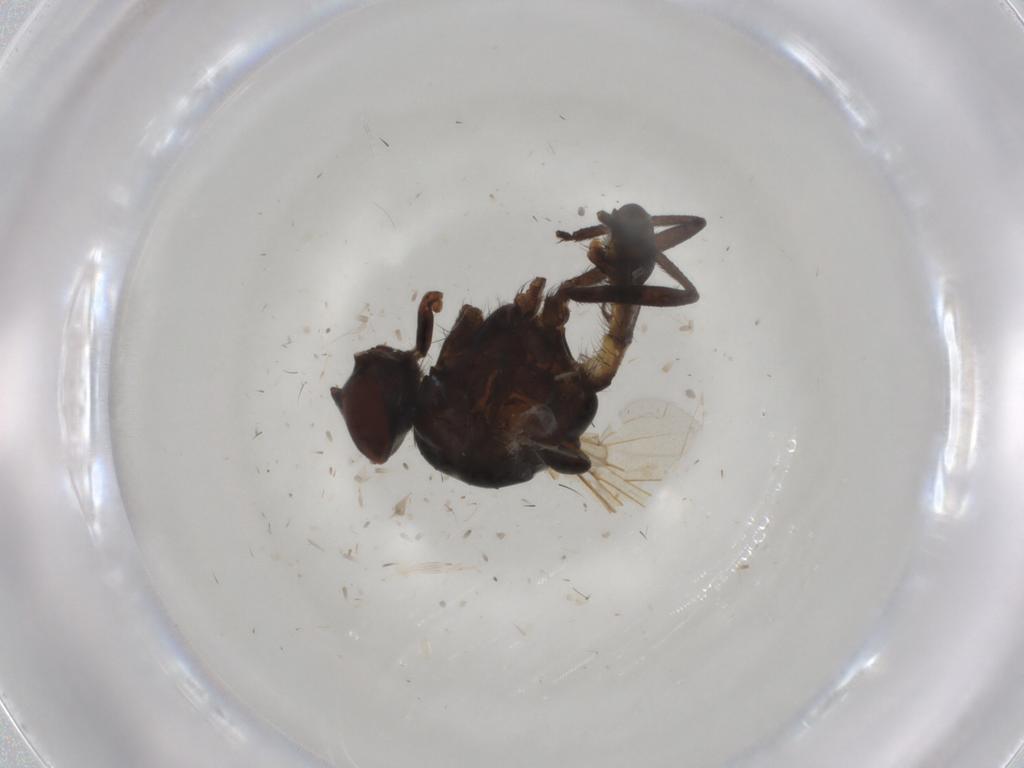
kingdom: Animalia
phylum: Arthropoda
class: Insecta
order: Diptera
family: Anthomyiidae
